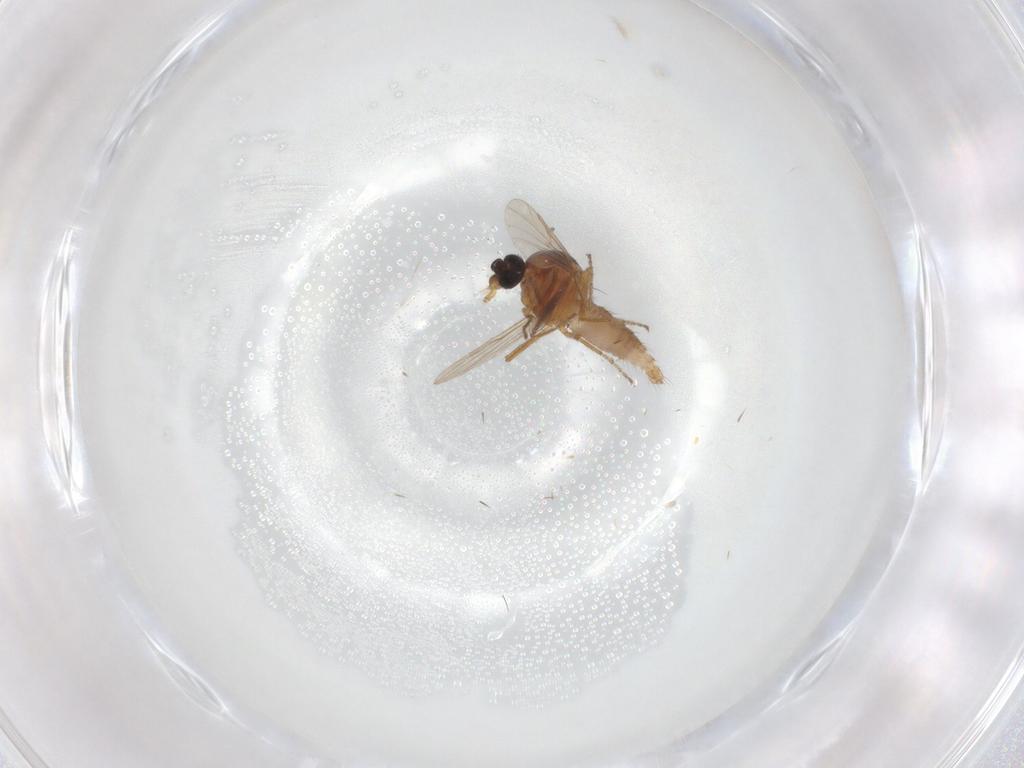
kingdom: Animalia
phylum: Arthropoda
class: Insecta
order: Diptera
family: Ceratopogonidae
